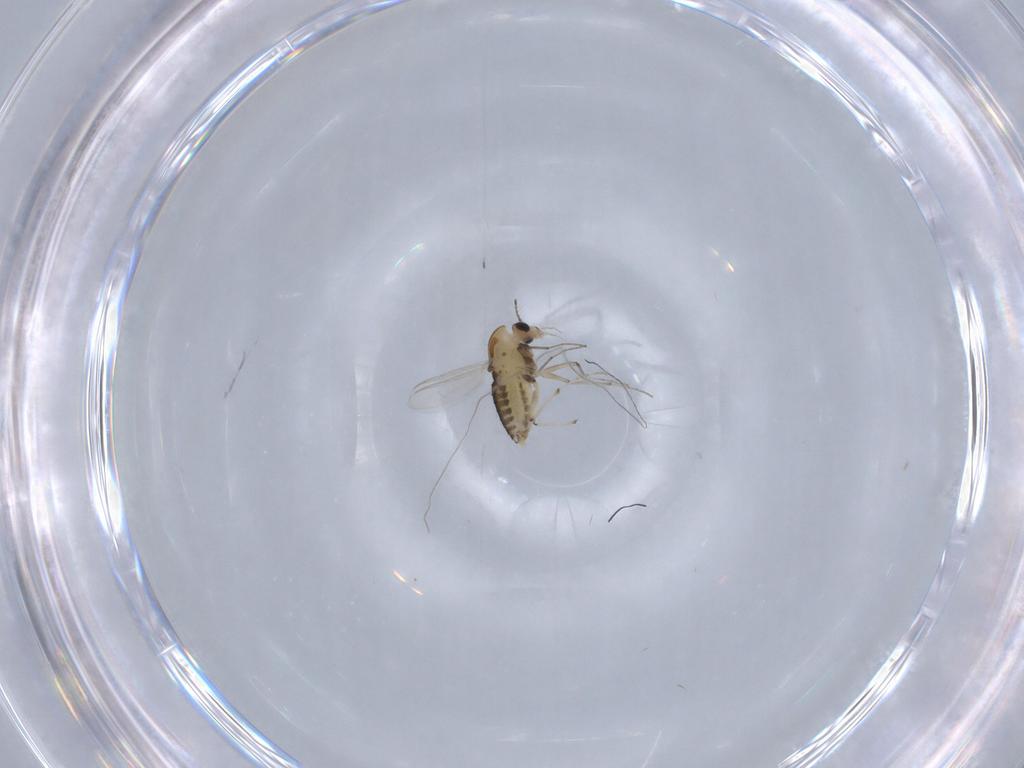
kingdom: Animalia
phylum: Arthropoda
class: Insecta
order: Diptera
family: Chironomidae
